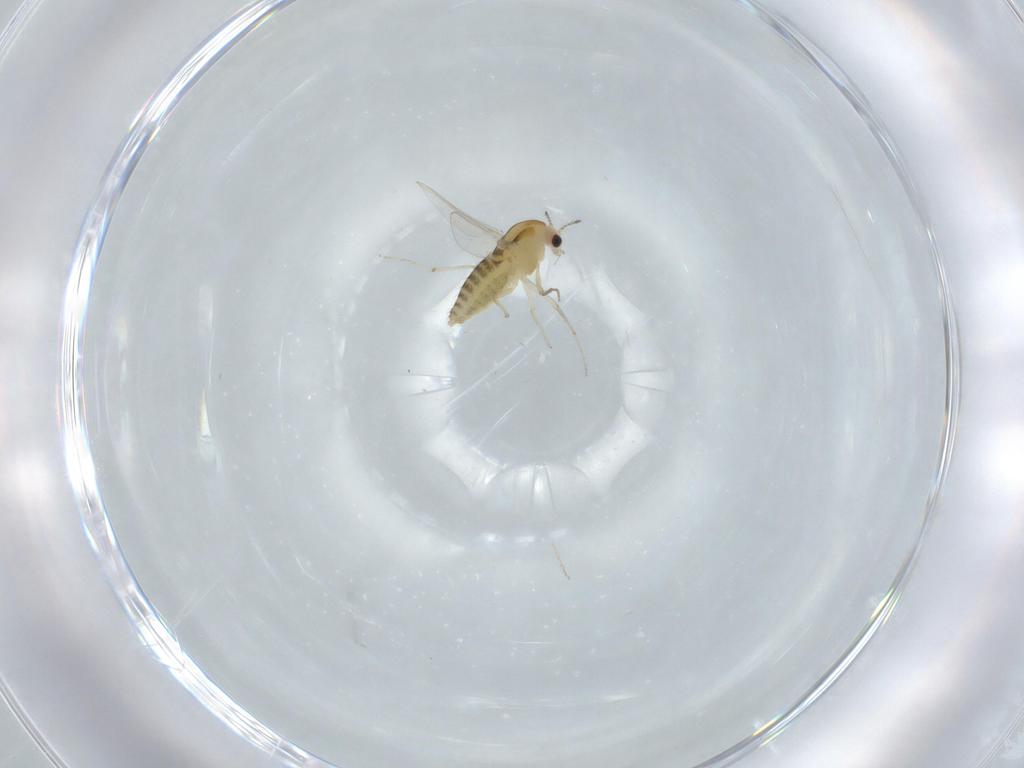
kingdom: Animalia
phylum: Arthropoda
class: Insecta
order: Diptera
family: Chironomidae
